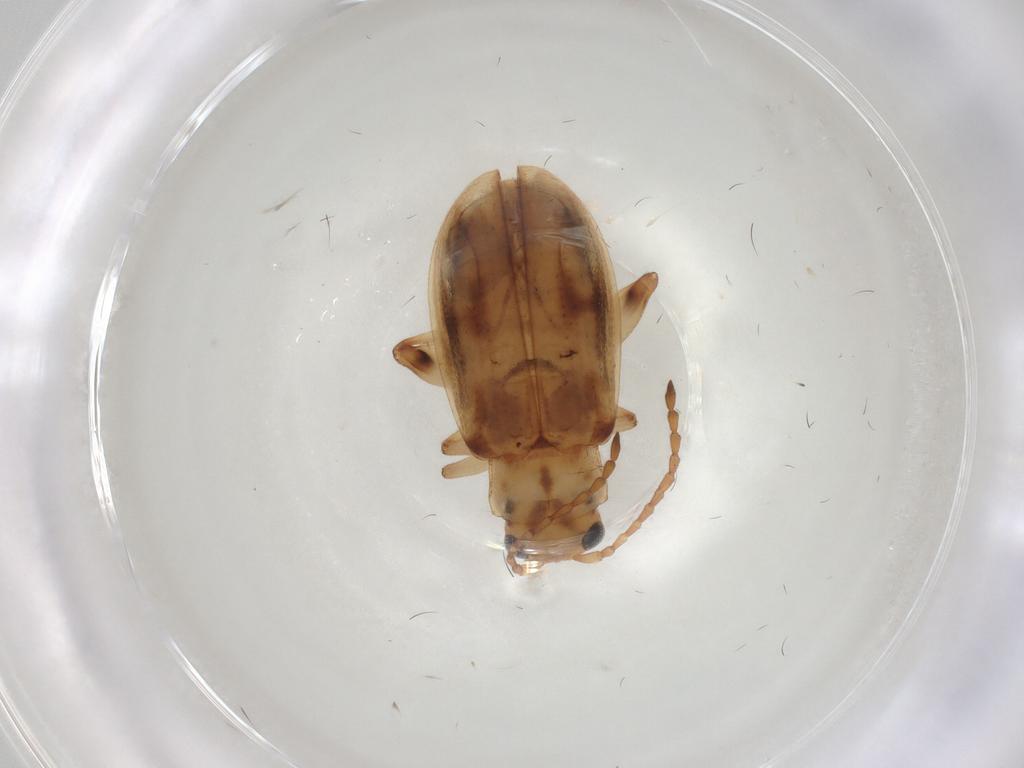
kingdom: Animalia
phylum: Arthropoda
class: Insecta
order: Coleoptera
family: Chrysomelidae
